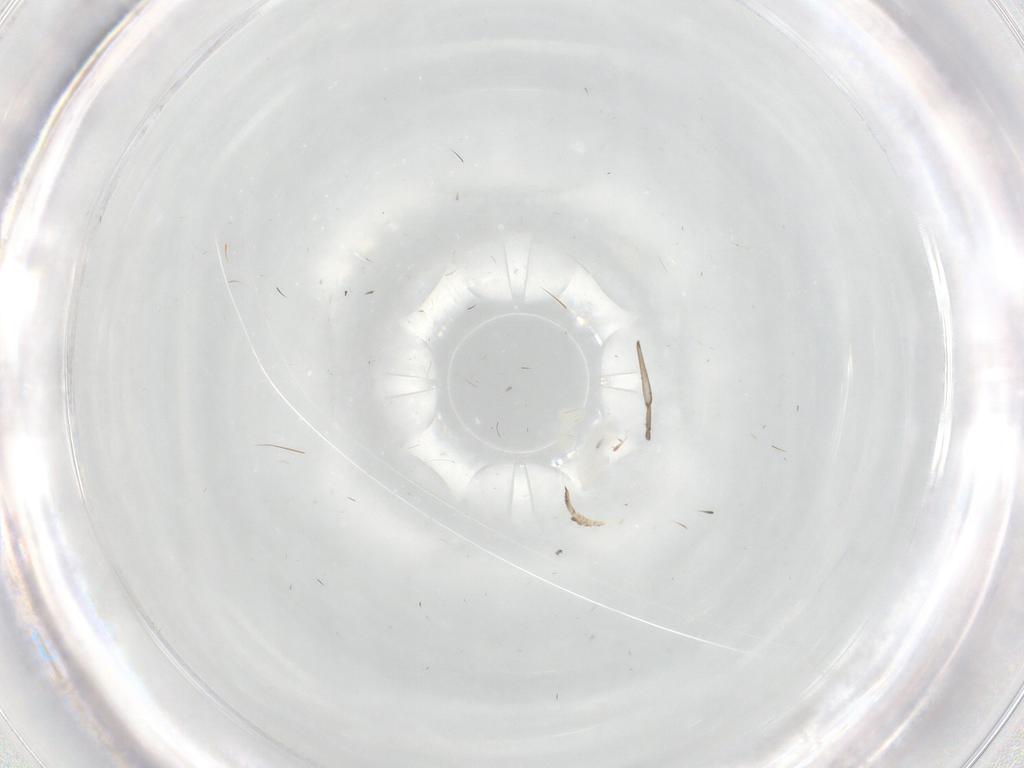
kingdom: Animalia
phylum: Arthropoda
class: Insecta
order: Diptera
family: Psychodidae
